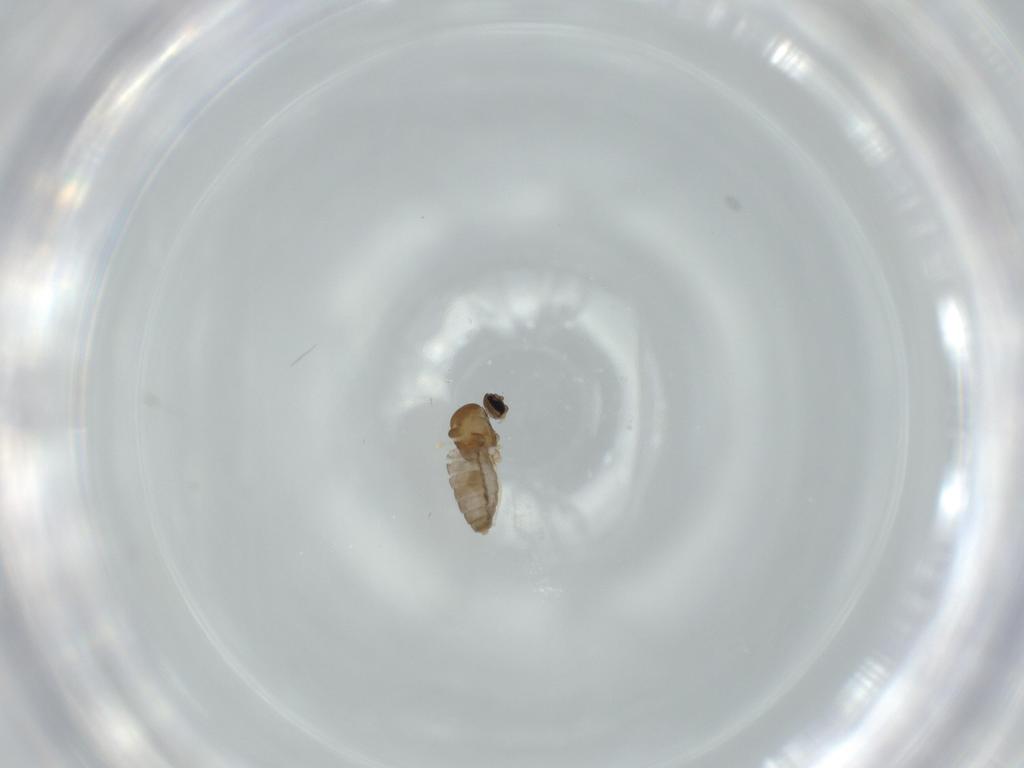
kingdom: Animalia
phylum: Arthropoda
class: Insecta
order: Diptera
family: Cecidomyiidae
